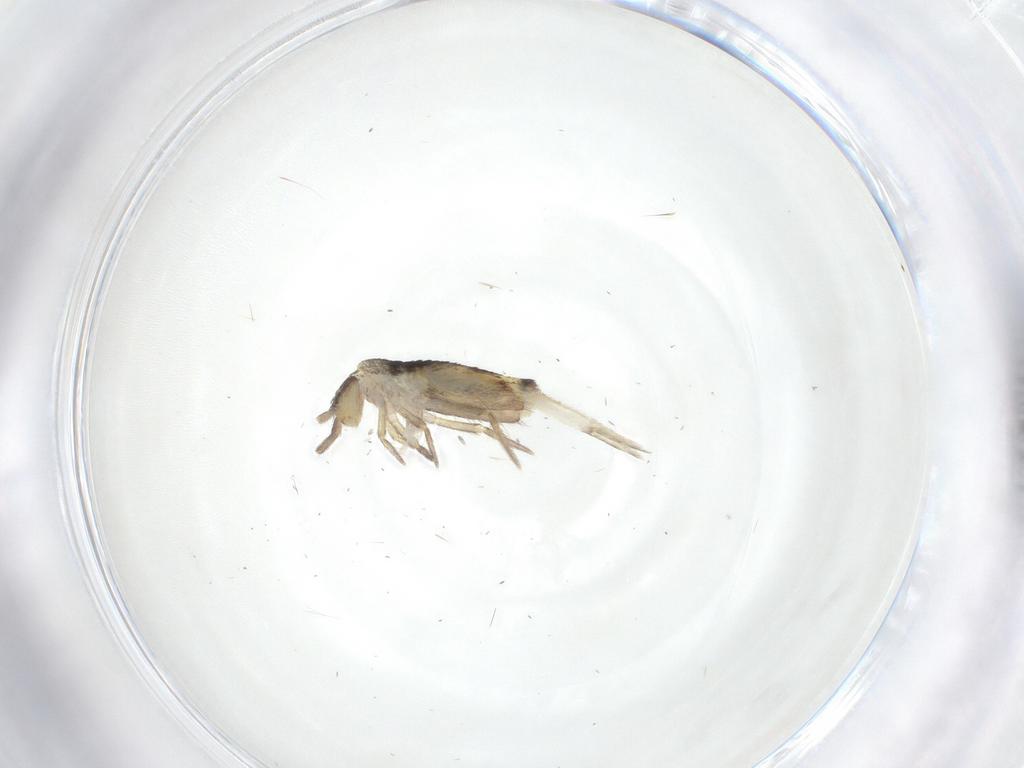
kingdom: Animalia
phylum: Arthropoda
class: Collembola
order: Entomobryomorpha
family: Entomobryidae
